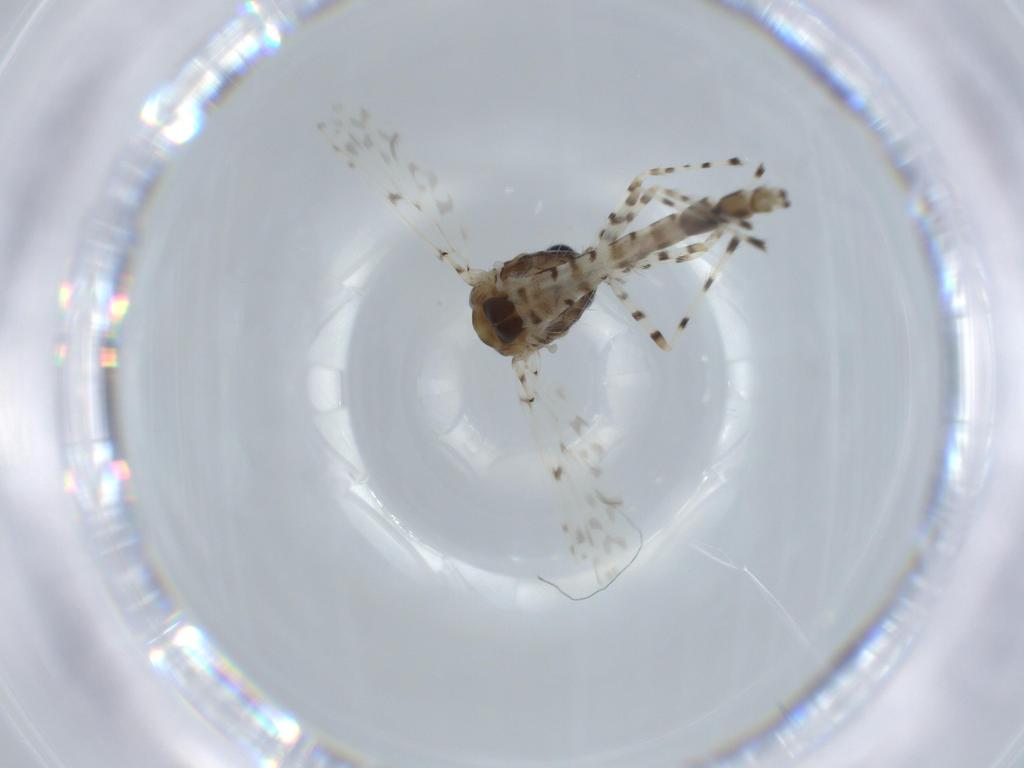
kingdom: Animalia
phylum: Arthropoda
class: Insecta
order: Diptera
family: Chironomidae
